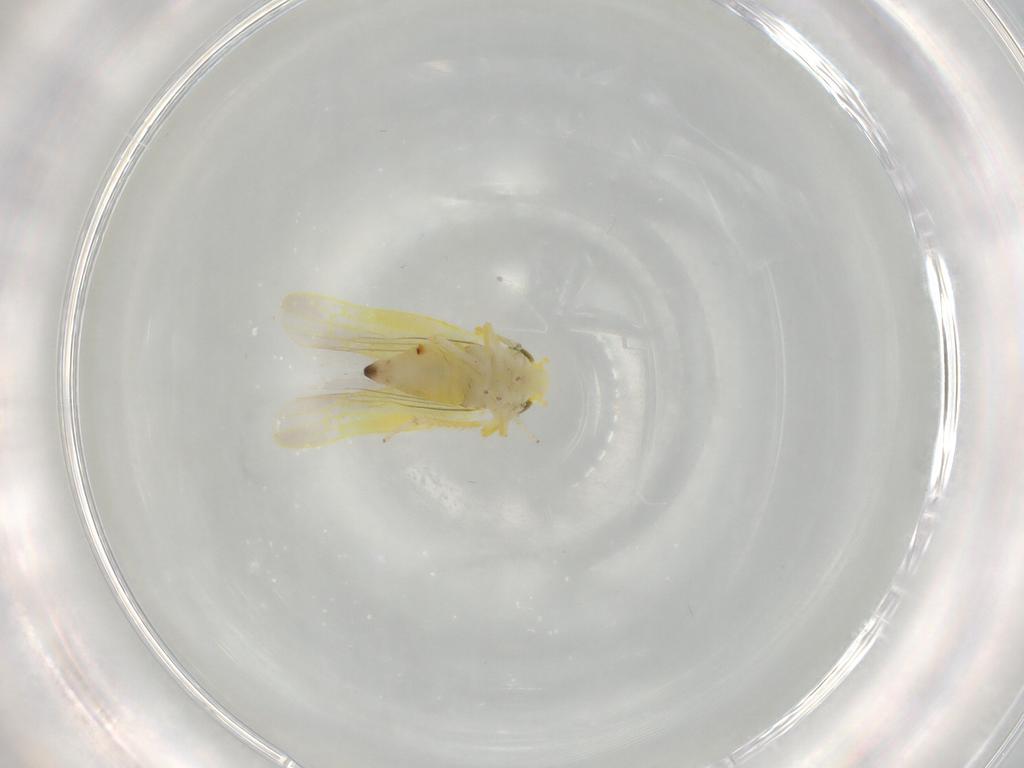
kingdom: Animalia
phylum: Arthropoda
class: Insecta
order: Hemiptera
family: Cicadellidae
